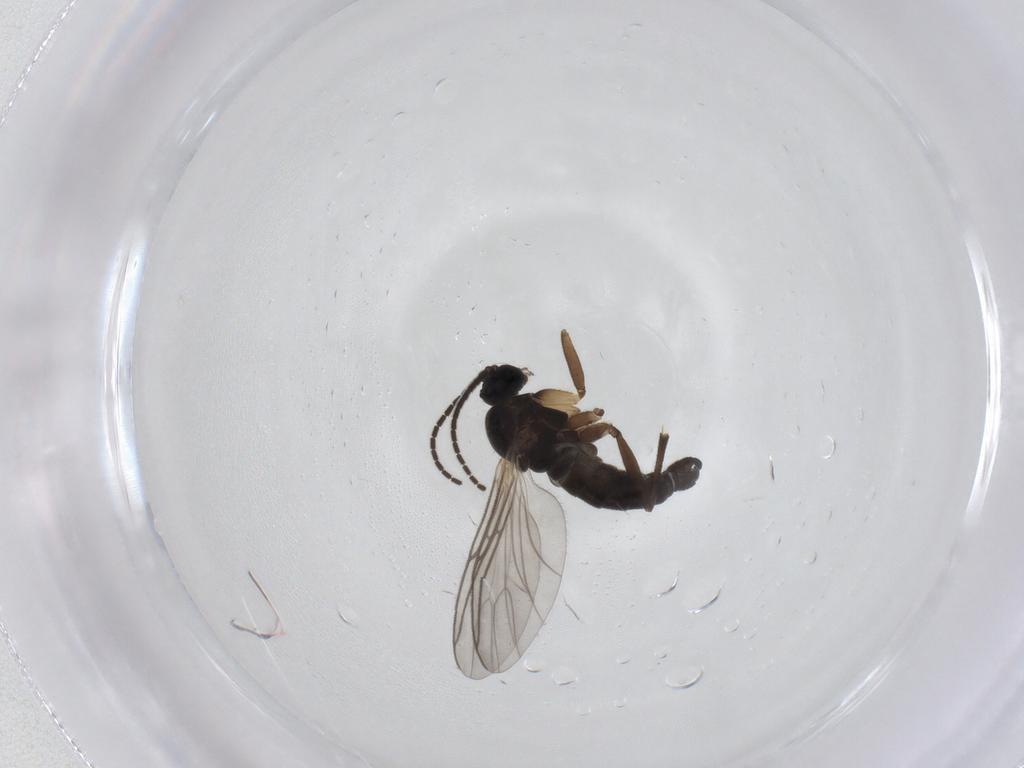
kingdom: Animalia
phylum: Arthropoda
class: Insecta
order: Diptera
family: Sciaridae
